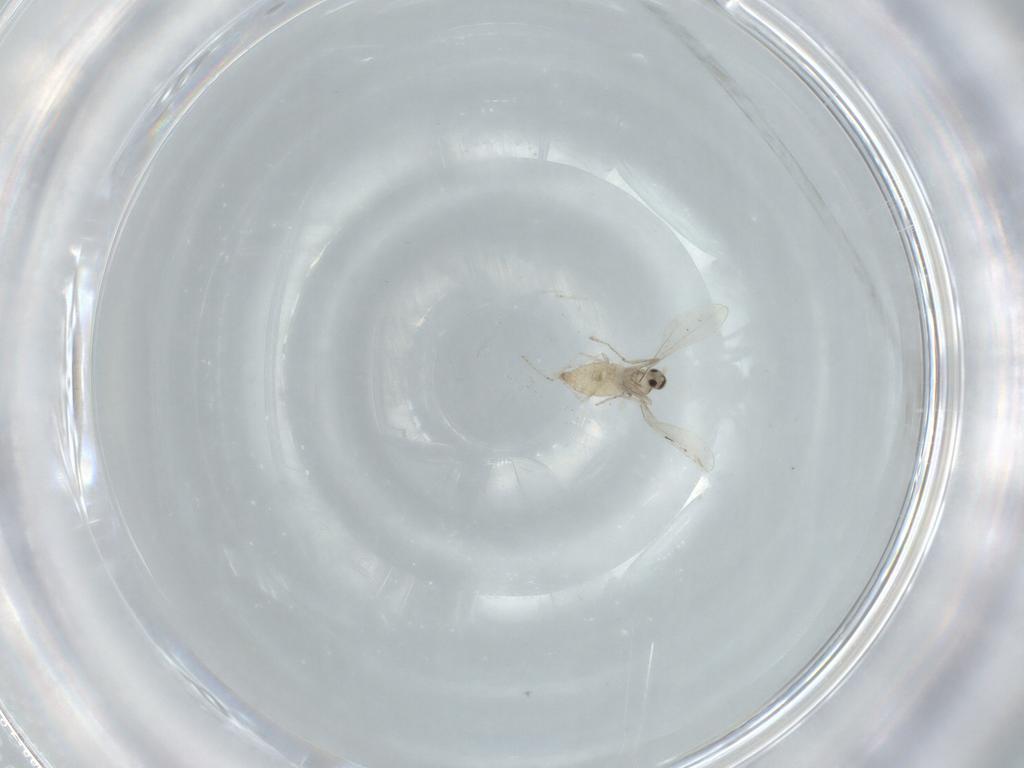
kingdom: Animalia
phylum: Arthropoda
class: Insecta
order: Diptera
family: Cecidomyiidae
